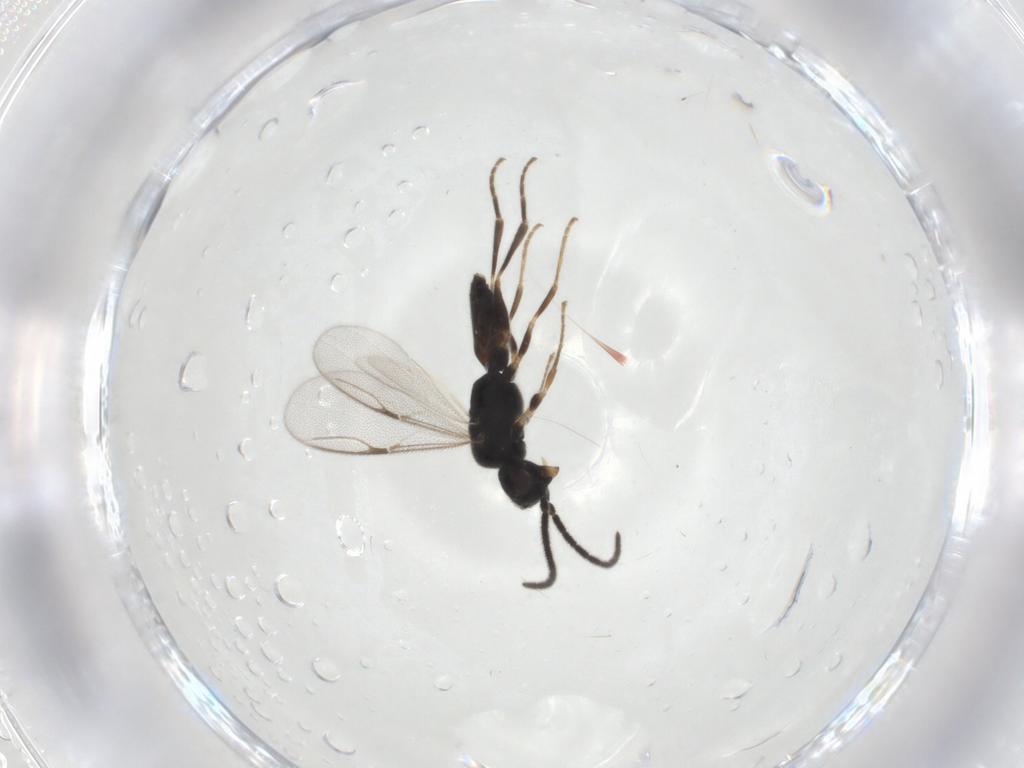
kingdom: Animalia
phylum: Arthropoda
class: Insecta
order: Hymenoptera
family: Dryinidae
